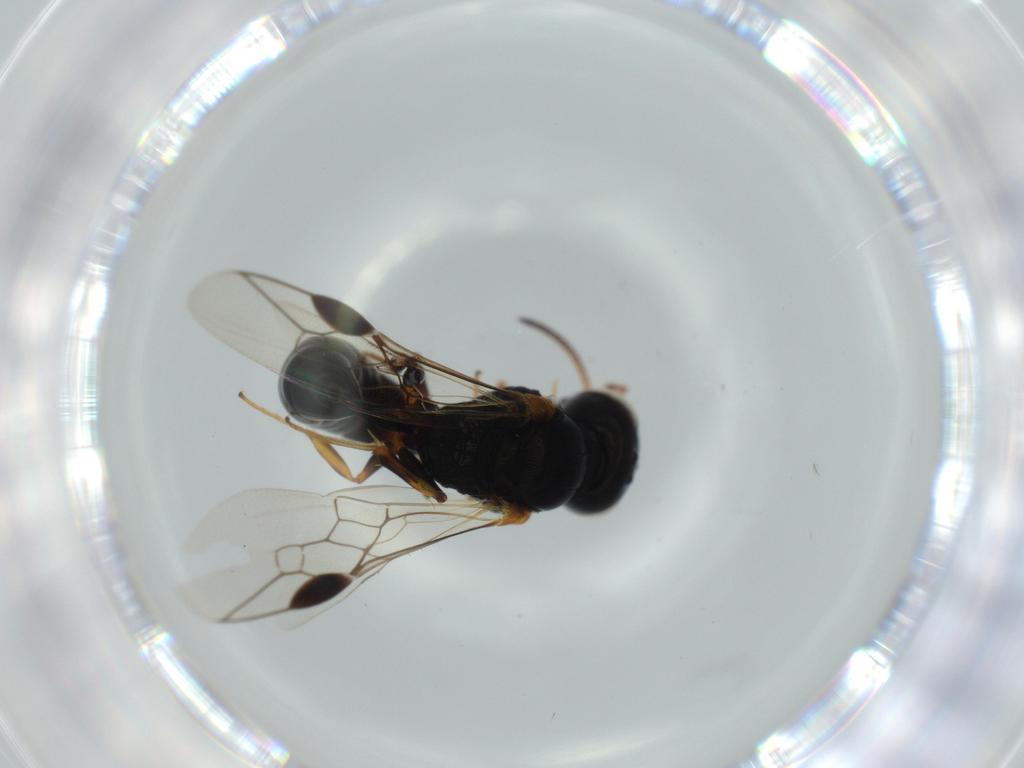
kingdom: Animalia
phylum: Arthropoda
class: Insecta
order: Hymenoptera
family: Crabronidae
